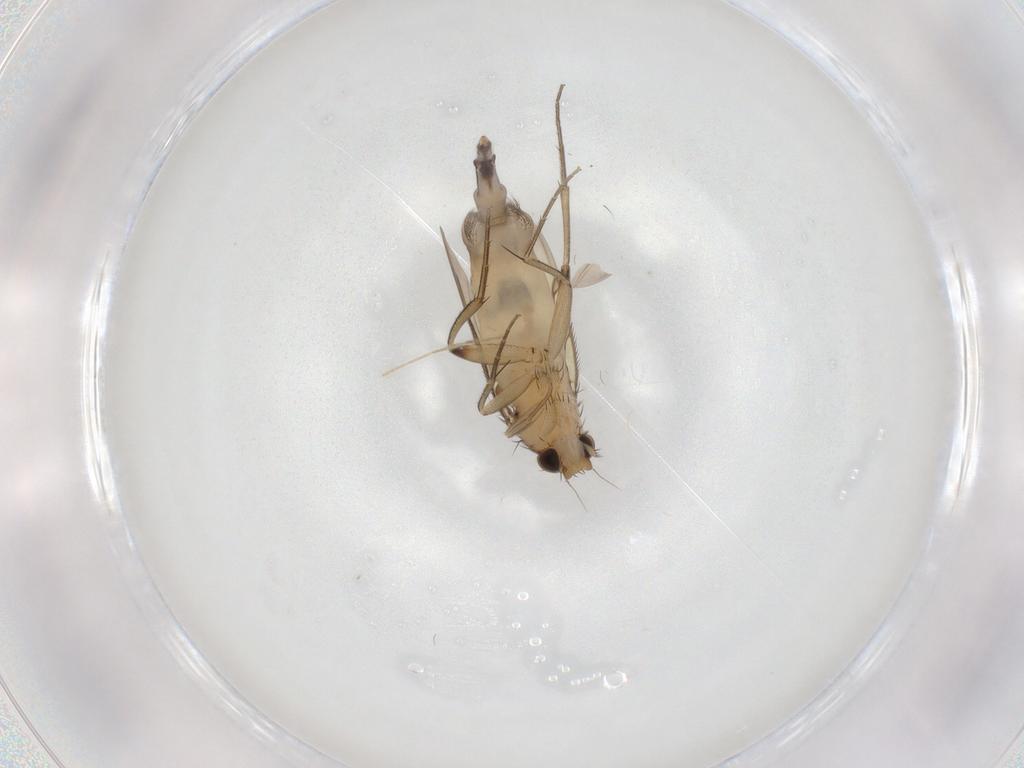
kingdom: Animalia
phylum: Arthropoda
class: Insecta
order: Diptera
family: Phoridae
